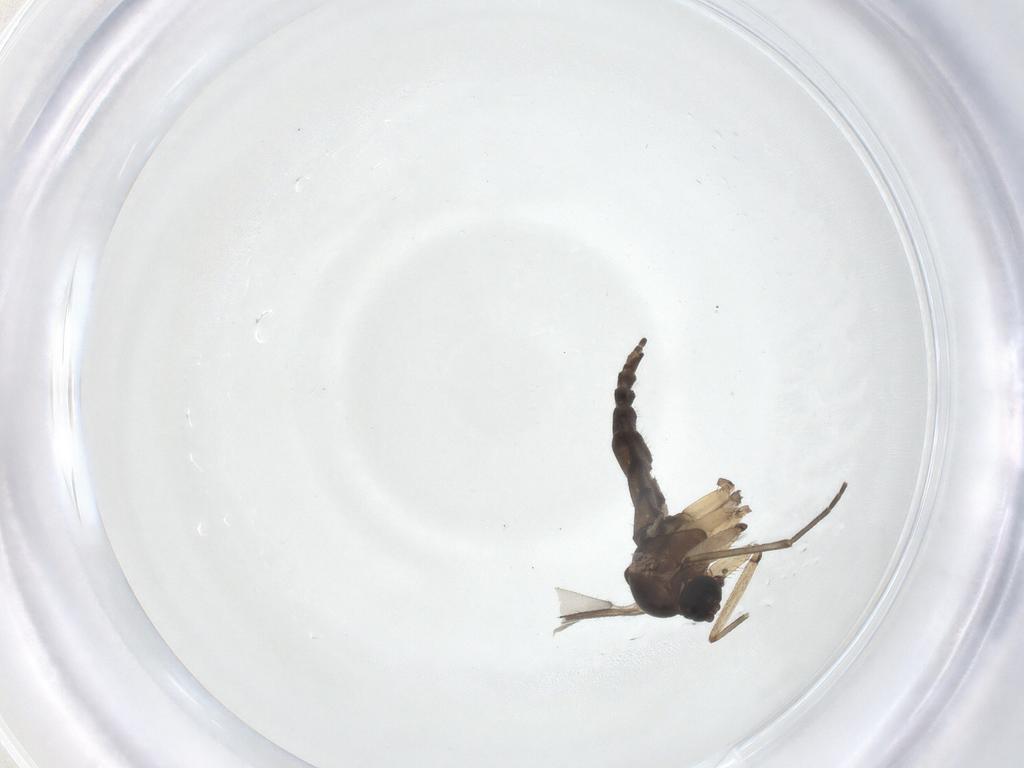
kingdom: Animalia
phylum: Arthropoda
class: Insecta
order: Diptera
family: Sciaridae
